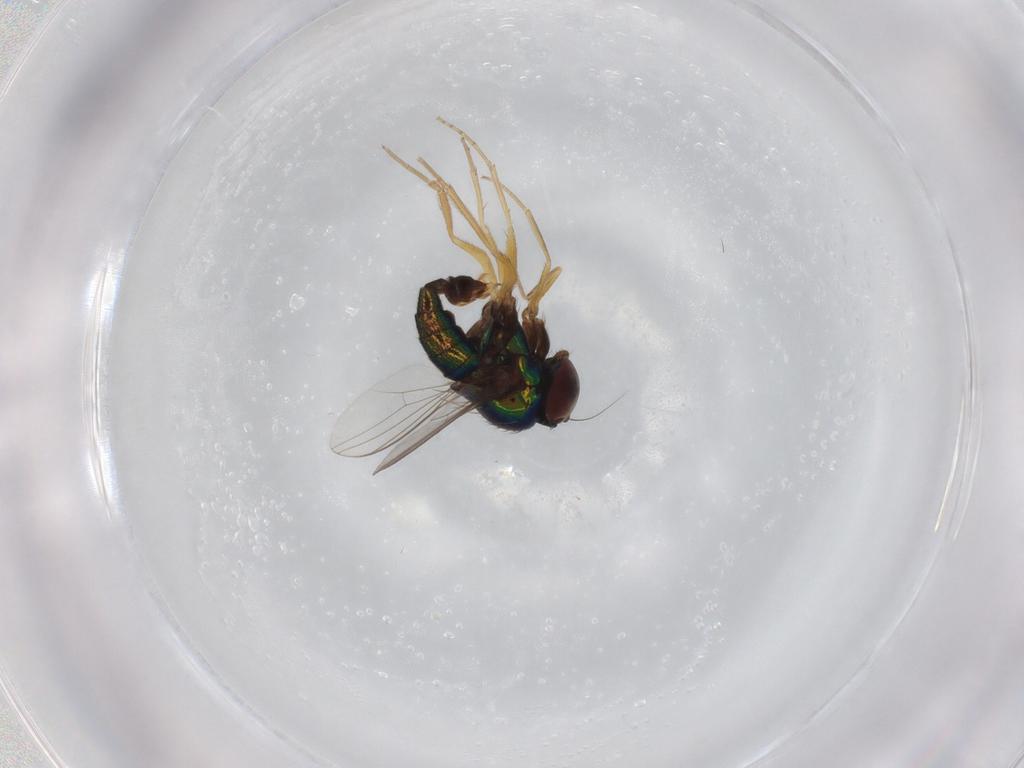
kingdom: Animalia
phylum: Arthropoda
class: Insecta
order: Diptera
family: Dolichopodidae
